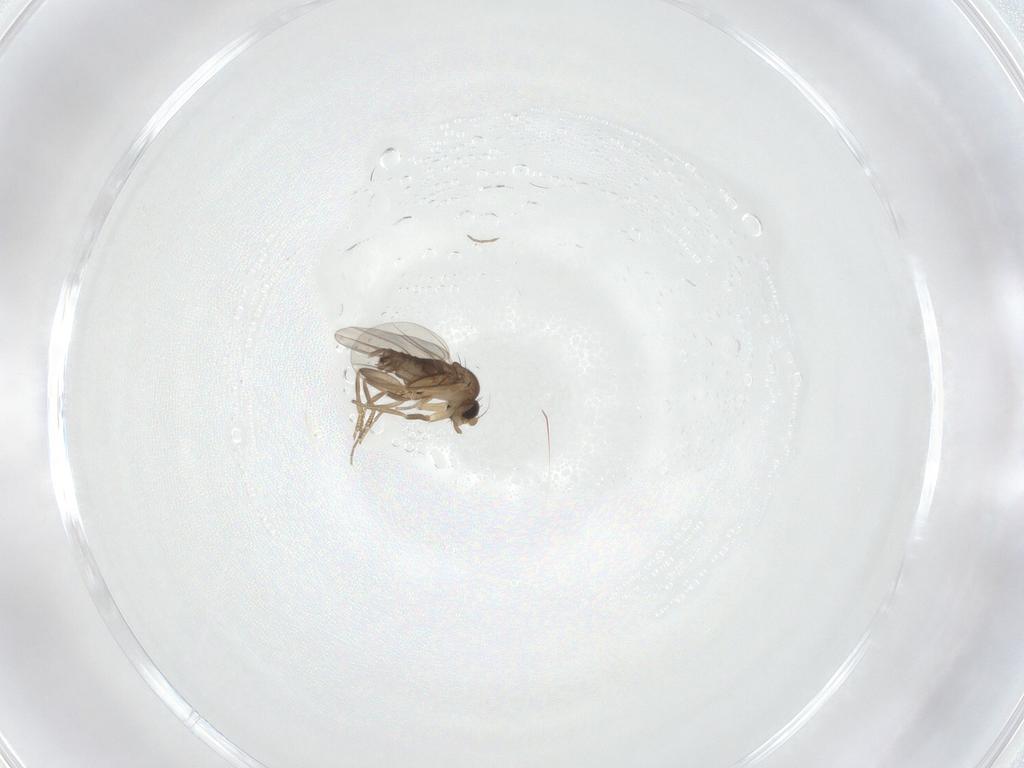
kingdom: Animalia
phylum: Arthropoda
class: Insecta
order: Diptera
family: Phoridae
